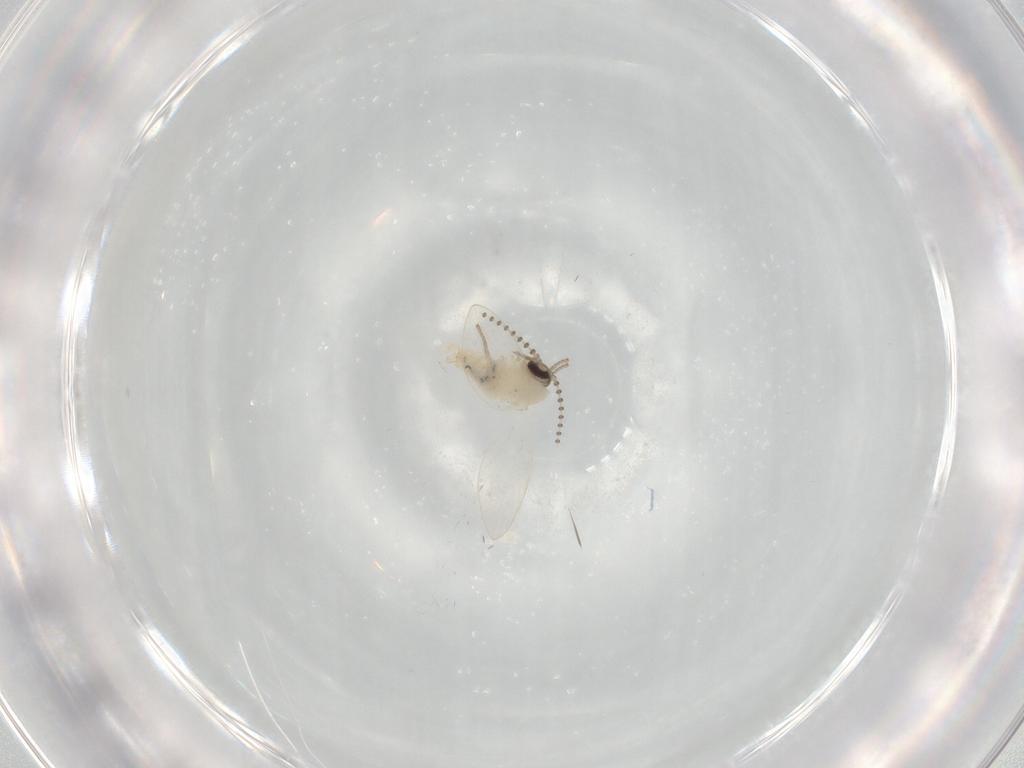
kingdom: Animalia
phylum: Arthropoda
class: Insecta
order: Diptera
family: Psychodidae
